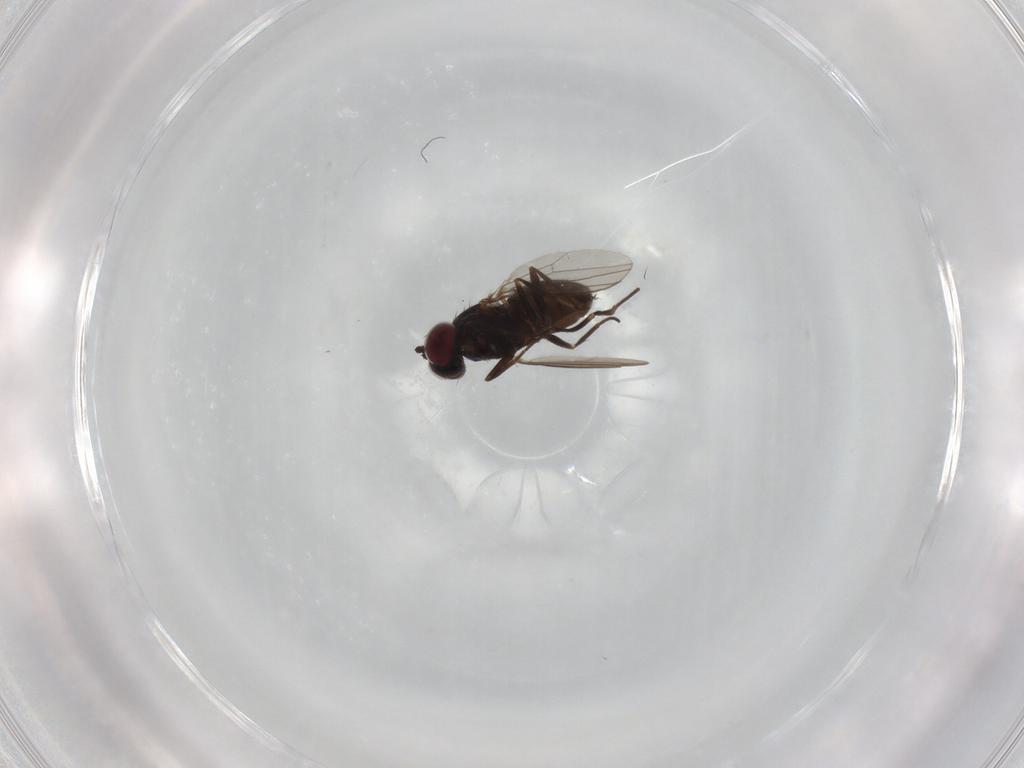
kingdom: Animalia
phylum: Arthropoda
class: Insecta
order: Diptera
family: Dolichopodidae
